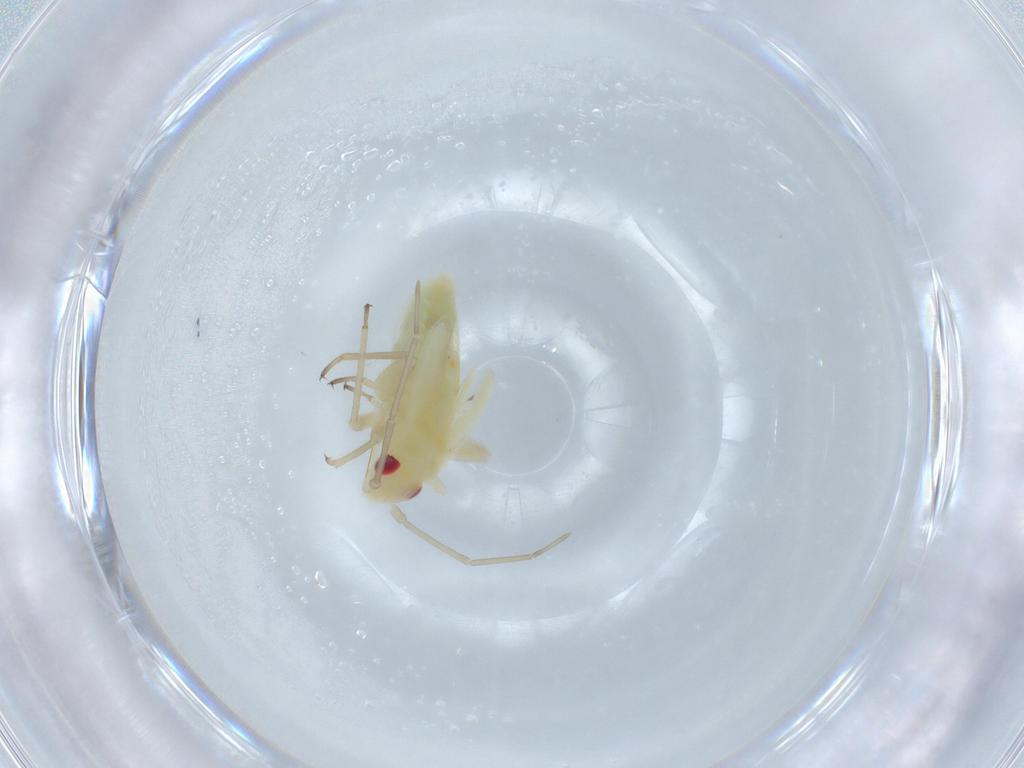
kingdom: Animalia
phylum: Arthropoda
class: Insecta
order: Hemiptera
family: Miridae
